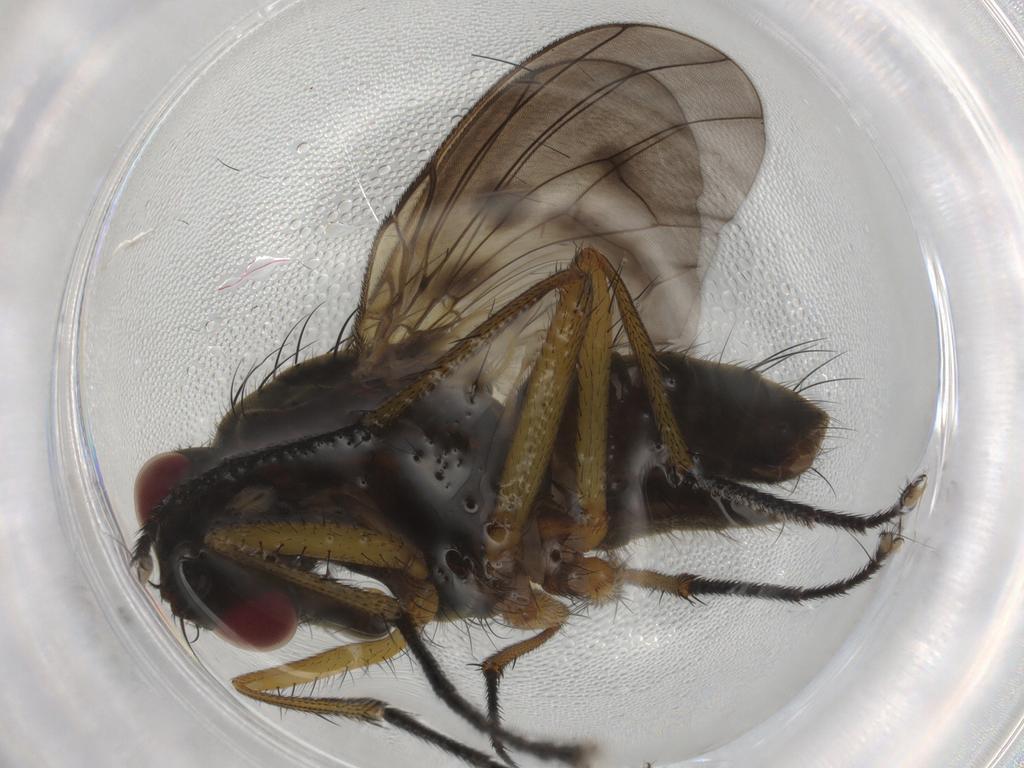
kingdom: Animalia
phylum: Arthropoda
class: Insecta
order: Diptera
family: Muscidae
